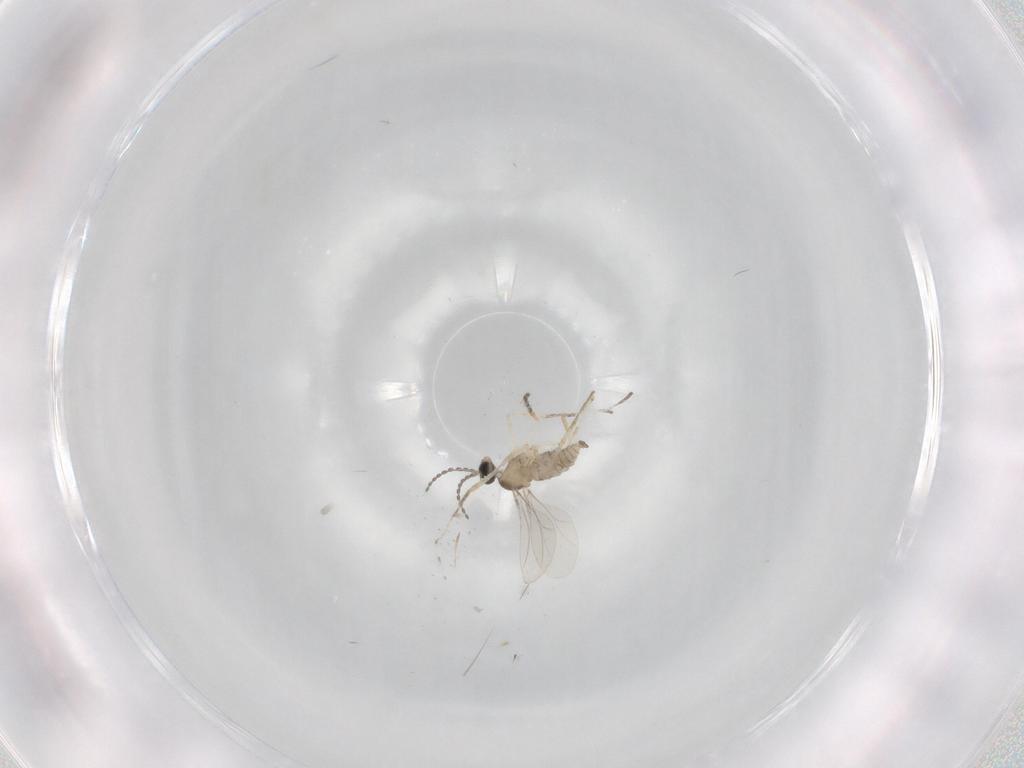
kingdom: Animalia
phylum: Arthropoda
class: Insecta
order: Diptera
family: Cecidomyiidae
